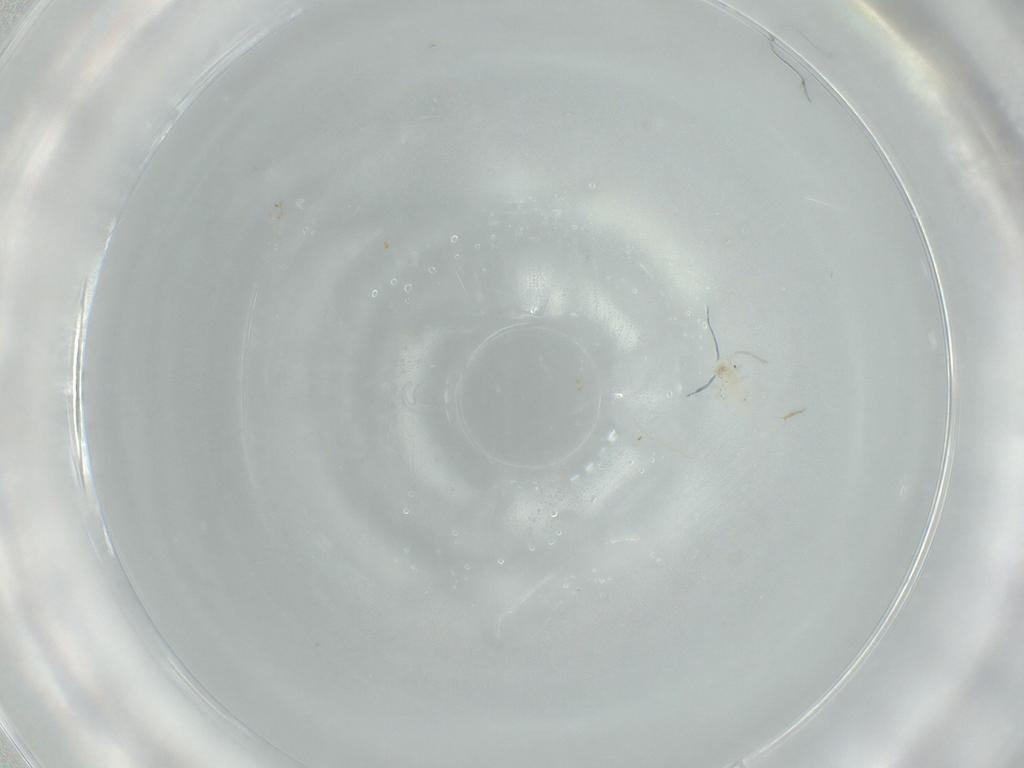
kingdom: Animalia
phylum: Arthropoda
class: Insecta
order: Psocodea
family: Caeciliusidae
